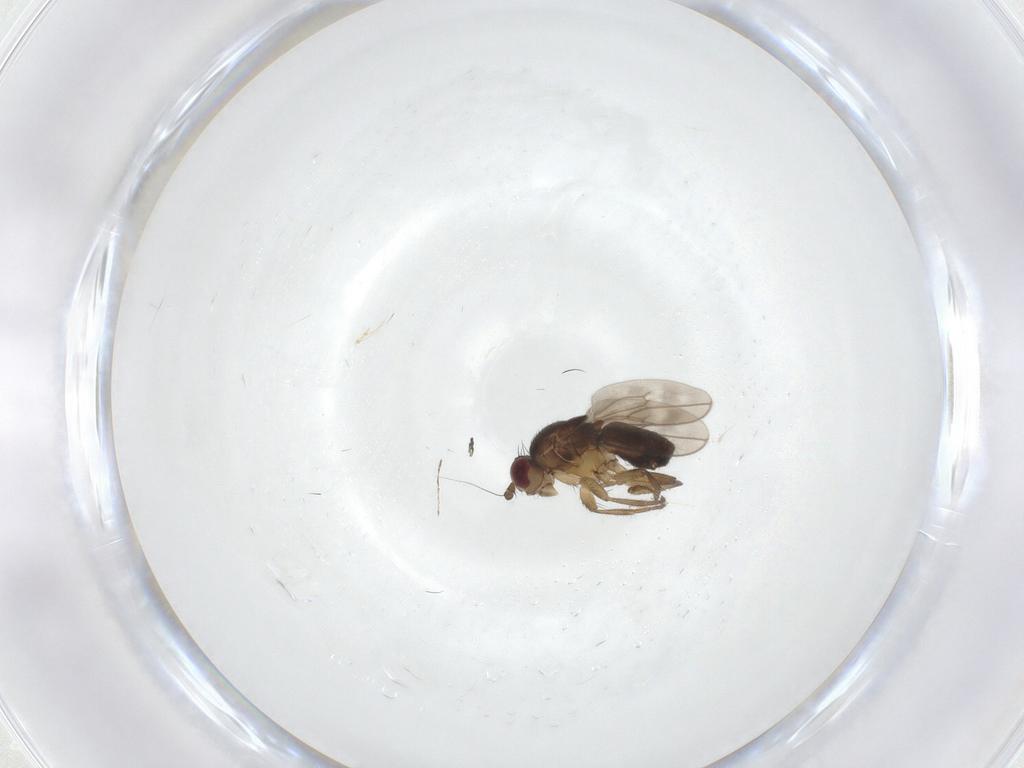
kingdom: Animalia
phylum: Arthropoda
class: Insecta
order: Diptera
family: Sphaeroceridae
